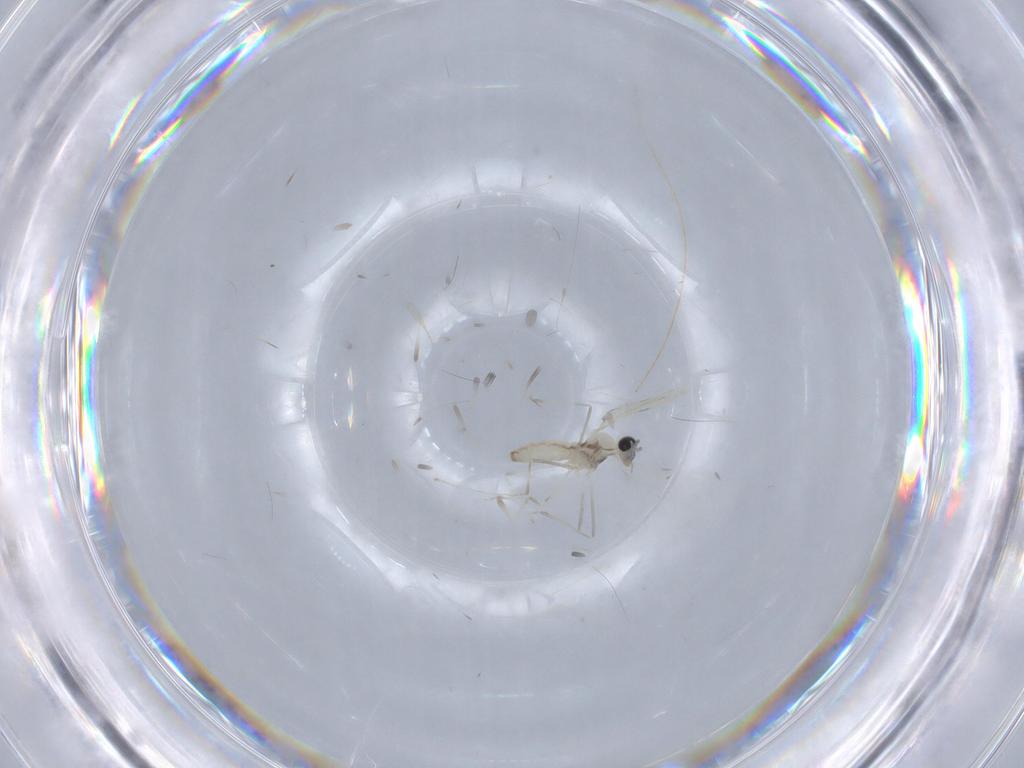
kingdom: Animalia
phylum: Arthropoda
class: Insecta
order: Diptera
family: Cecidomyiidae
